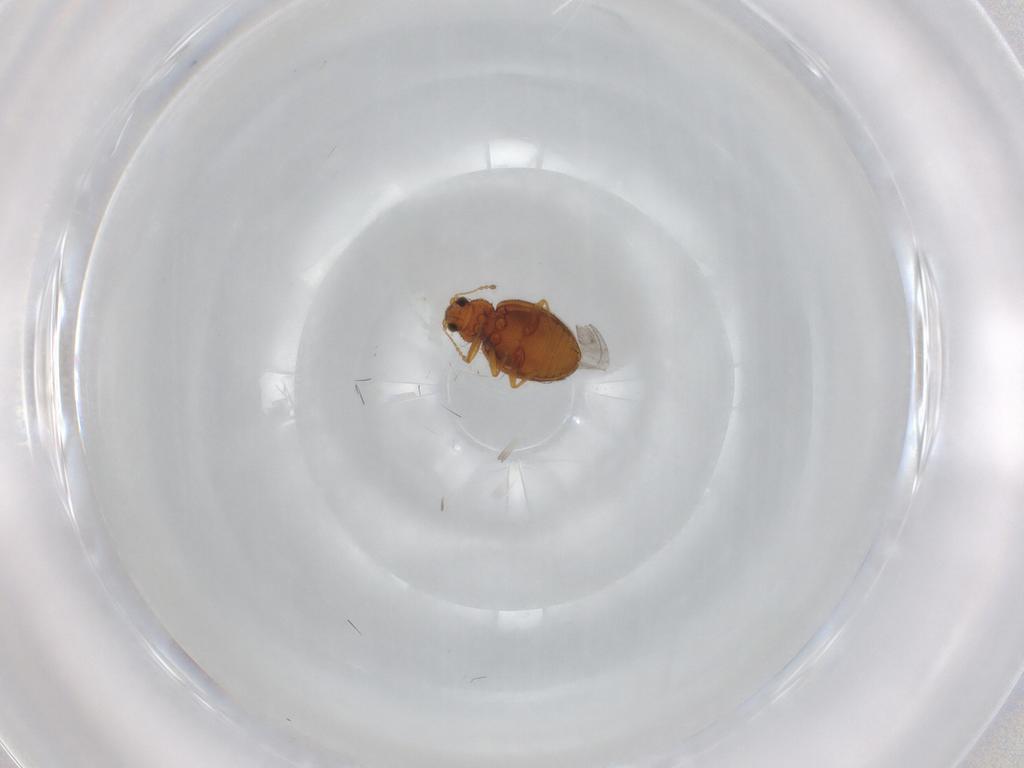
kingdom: Animalia
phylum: Arthropoda
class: Insecta
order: Coleoptera
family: Latridiidae
